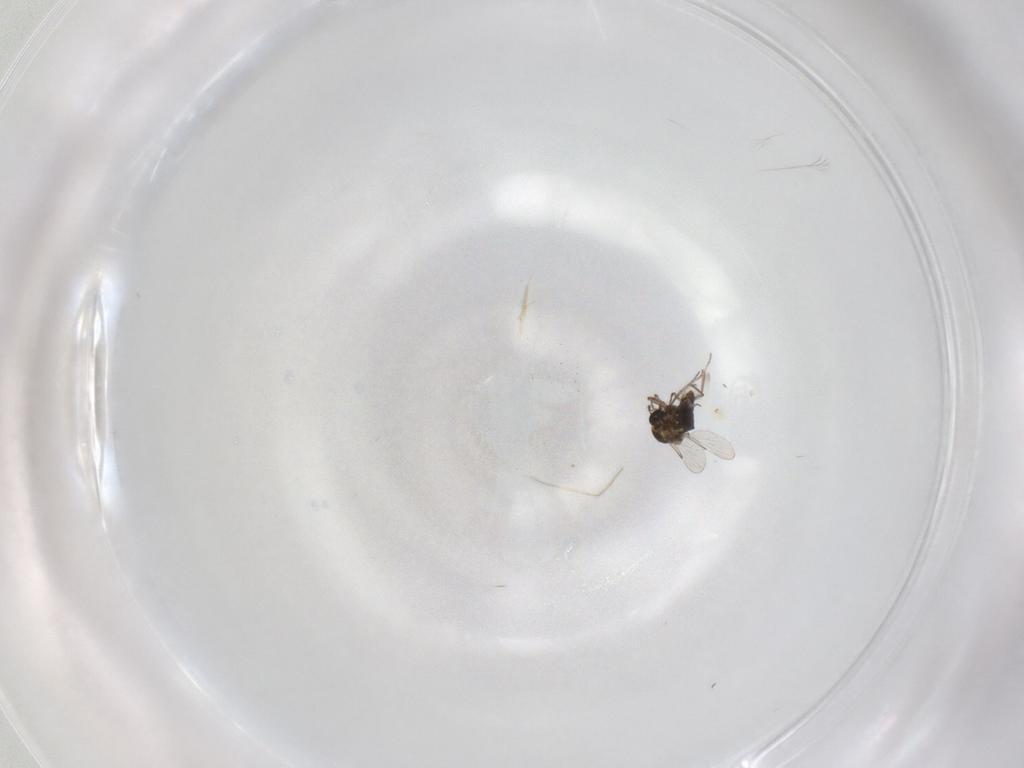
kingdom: Animalia
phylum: Arthropoda
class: Insecta
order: Diptera
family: Ceratopogonidae
